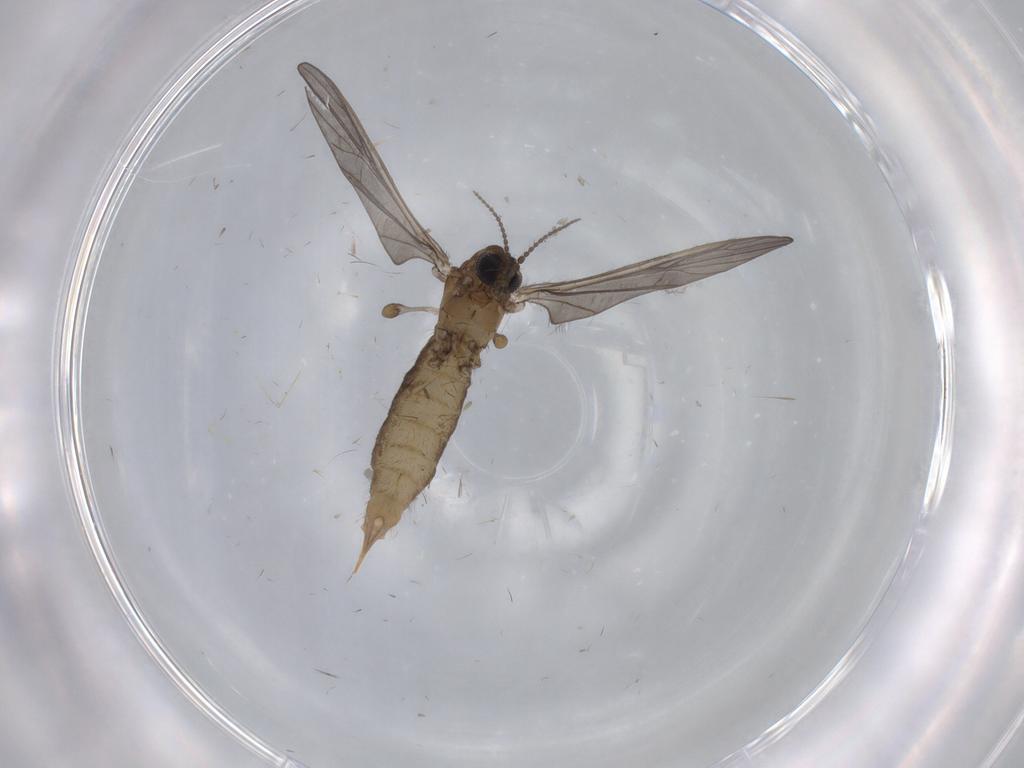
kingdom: Animalia
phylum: Arthropoda
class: Insecta
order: Diptera
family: Limoniidae
